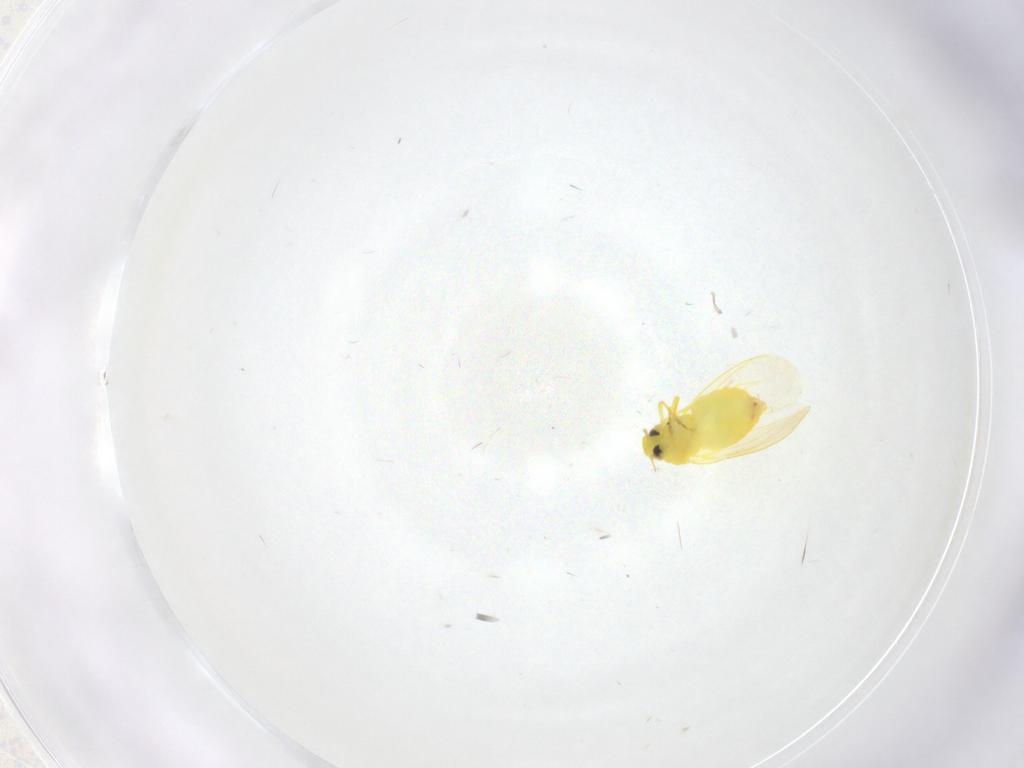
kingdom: Animalia
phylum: Arthropoda
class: Insecta
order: Hemiptera
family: Aleyrodidae
